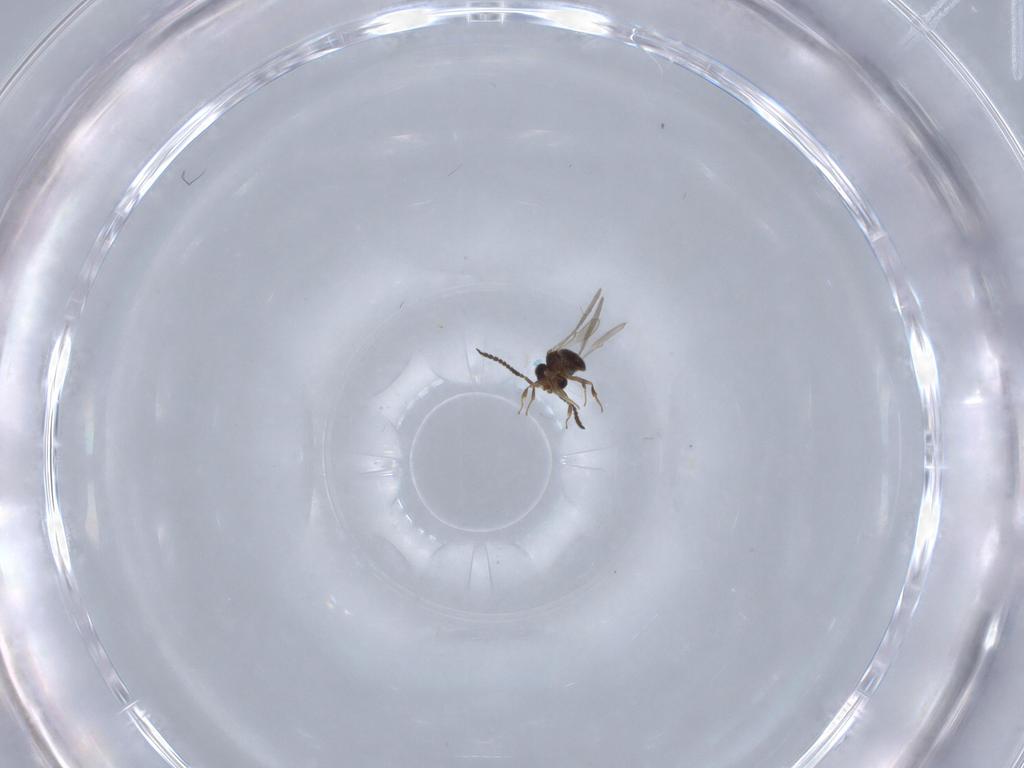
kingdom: Animalia
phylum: Arthropoda
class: Insecta
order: Hymenoptera
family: Scelionidae
